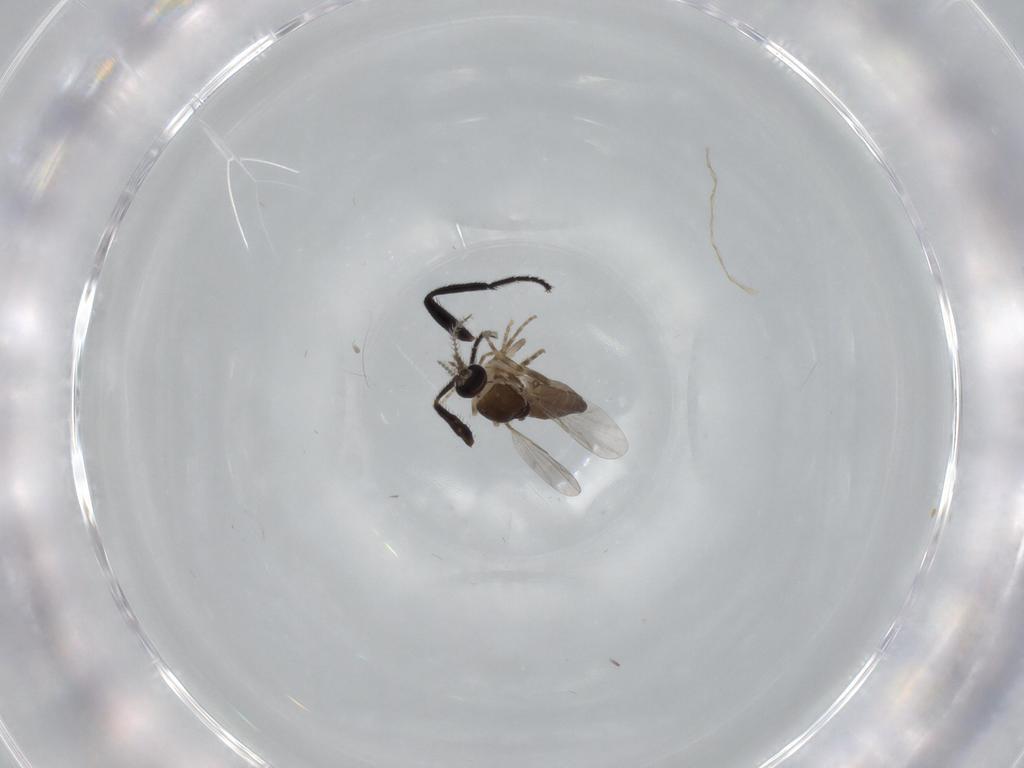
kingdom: Animalia
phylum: Arthropoda
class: Insecta
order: Diptera
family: Ceratopogonidae
